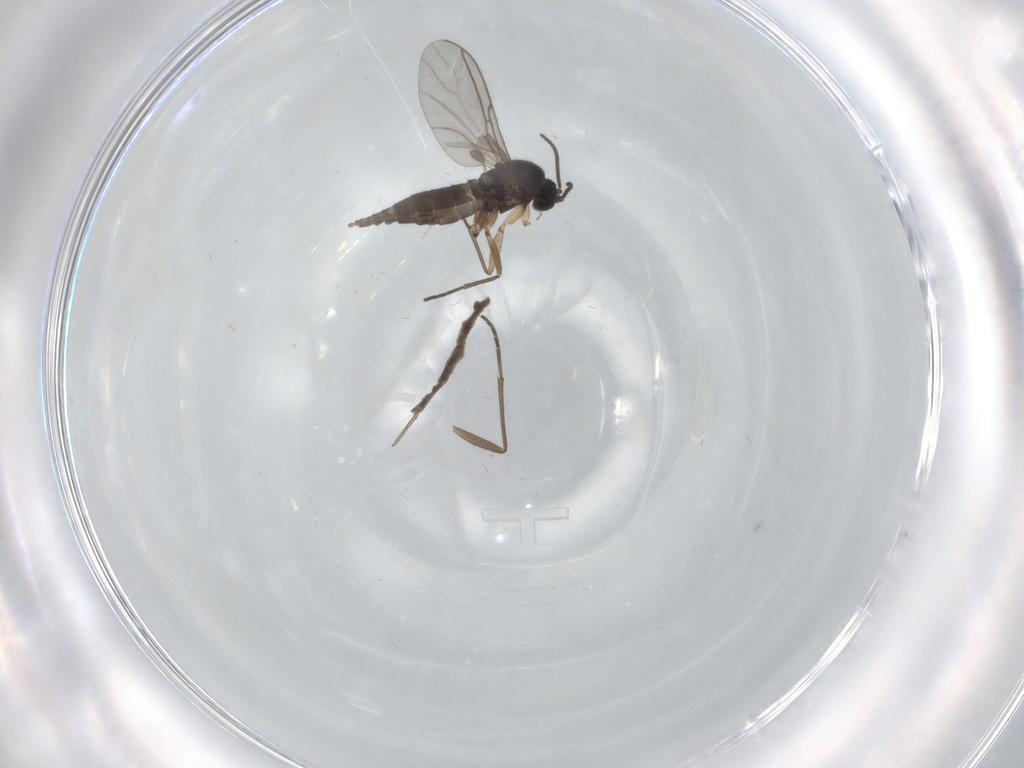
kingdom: Animalia
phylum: Arthropoda
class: Insecta
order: Diptera
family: Sciaridae
